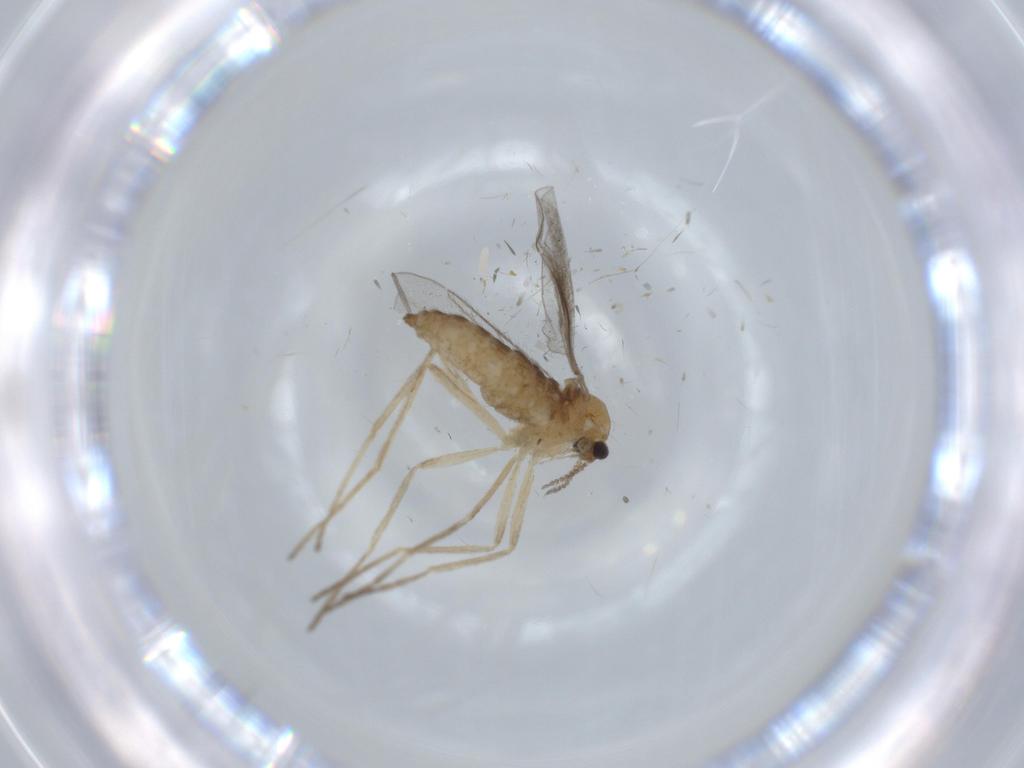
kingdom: Animalia
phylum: Arthropoda
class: Insecta
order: Diptera
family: Cecidomyiidae
